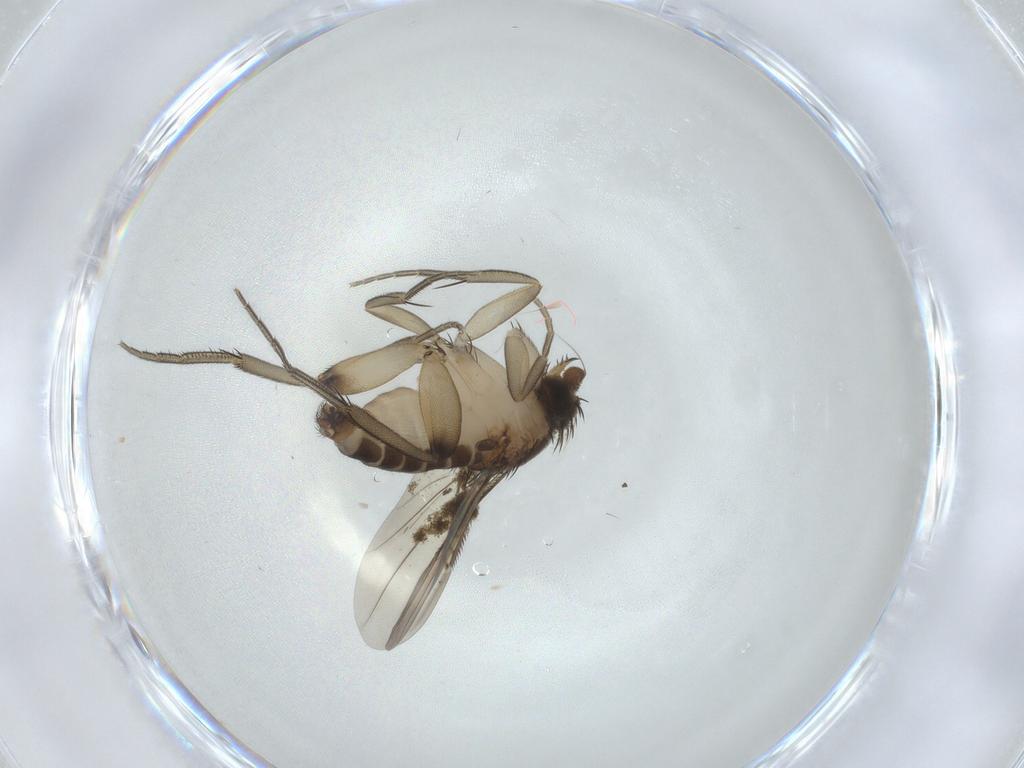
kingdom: Animalia
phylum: Arthropoda
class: Insecta
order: Diptera
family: Phoridae
